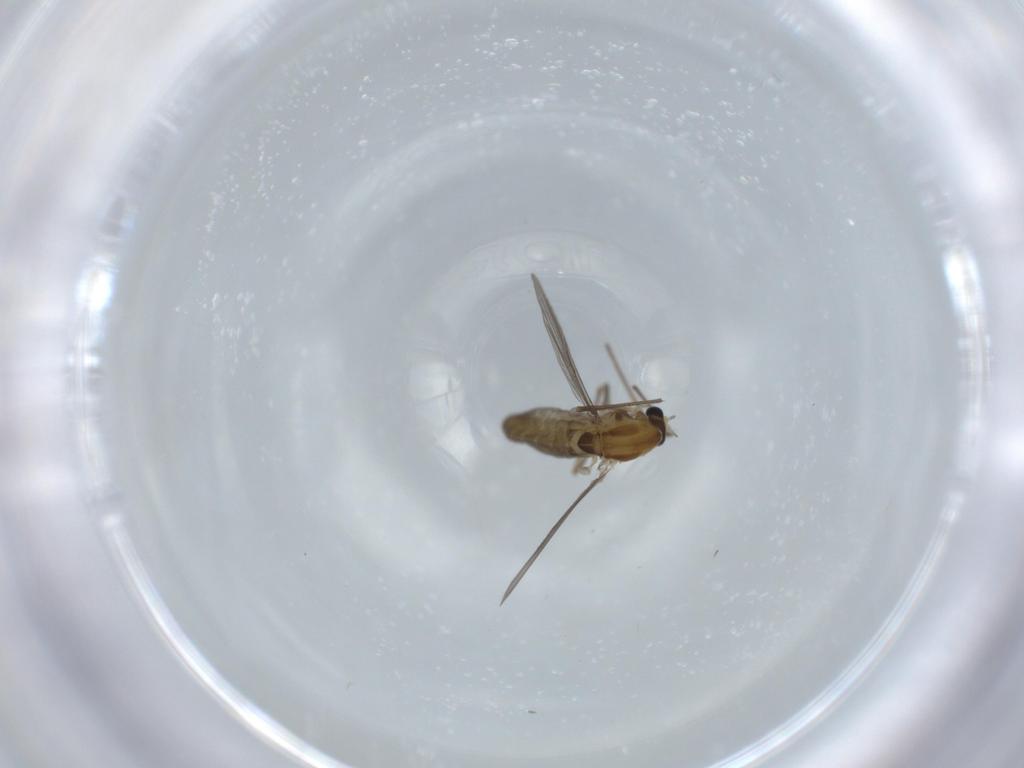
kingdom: Animalia
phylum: Arthropoda
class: Insecta
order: Diptera
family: Chironomidae
